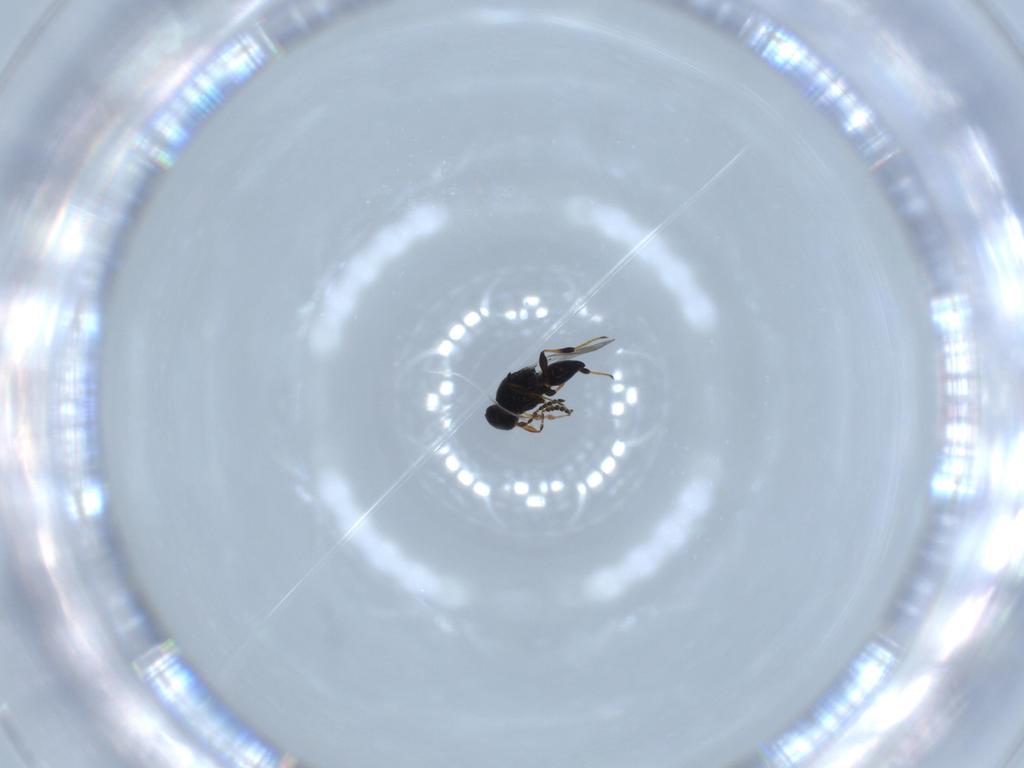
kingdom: Animalia
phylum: Arthropoda
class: Insecta
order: Hymenoptera
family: Platygastridae
